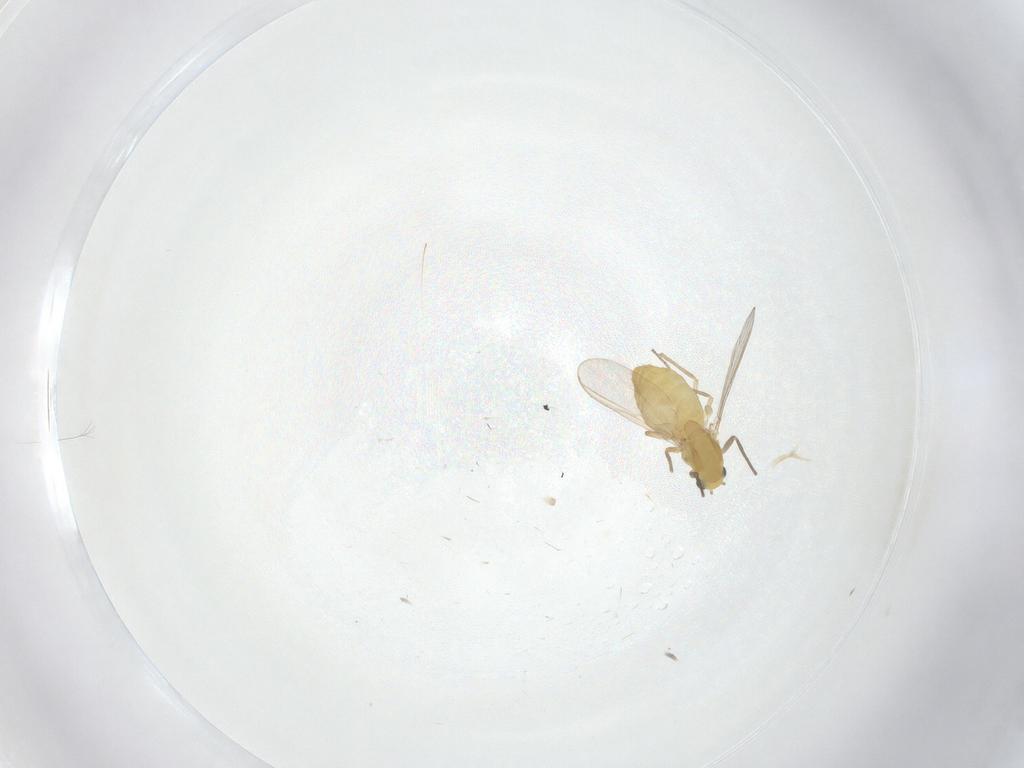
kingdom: Animalia
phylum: Arthropoda
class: Insecta
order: Diptera
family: Chironomidae
